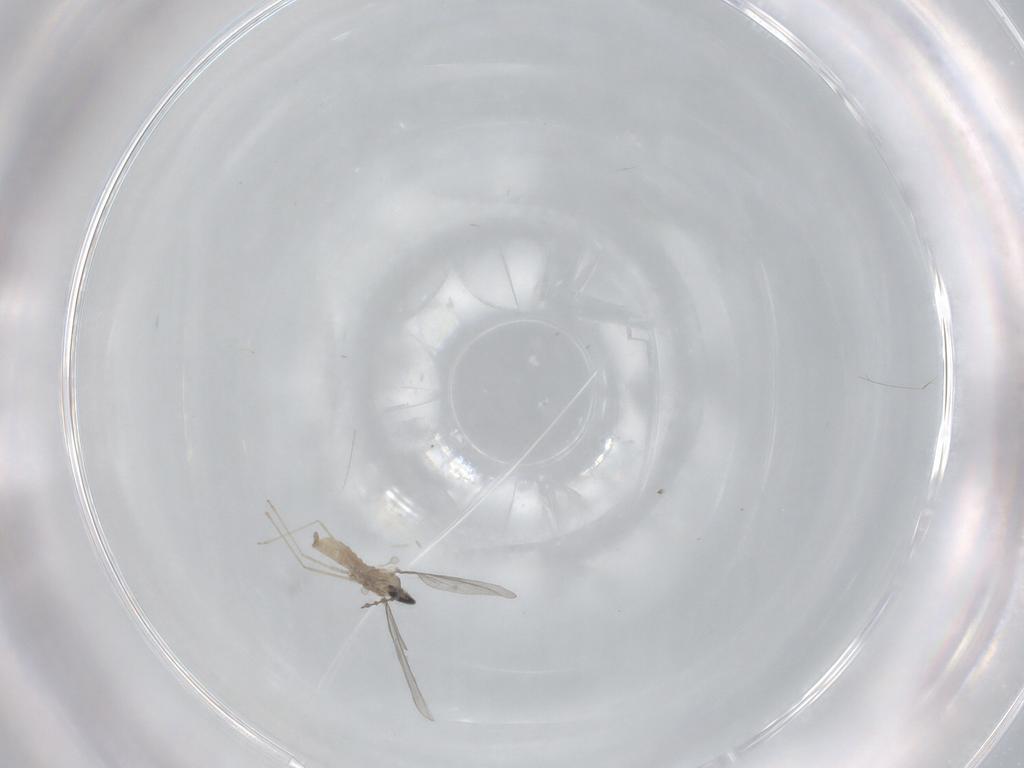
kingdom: Animalia
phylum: Arthropoda
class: Insecta
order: Diptera
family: Cecidomyiidae
